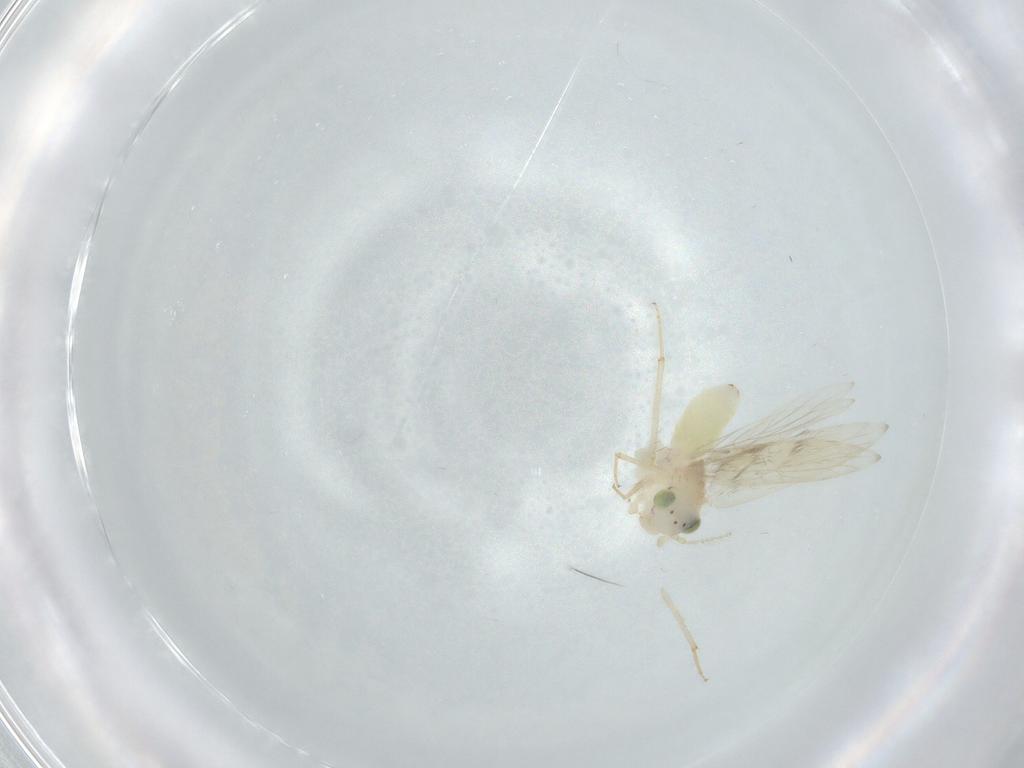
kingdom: Animalia
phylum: Arthropoda
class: Insecta
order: Psocodea
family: Lepidopsocidae
